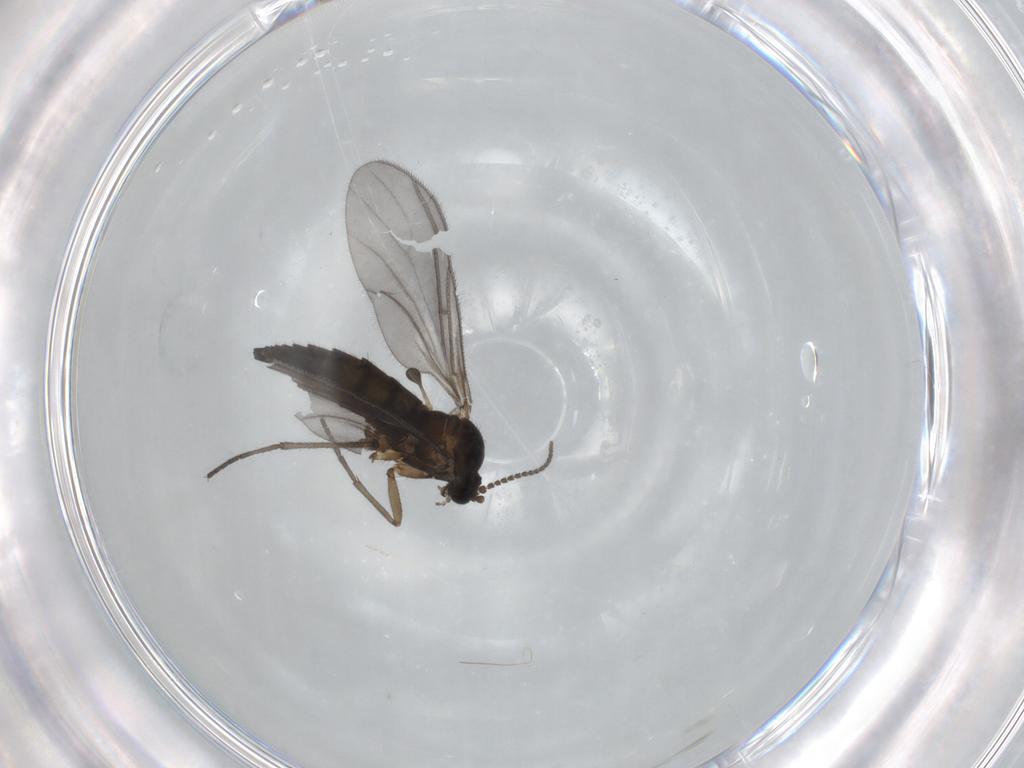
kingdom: Animalia
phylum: Arthropoda
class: Insecta
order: Diptera
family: Sciaridae
